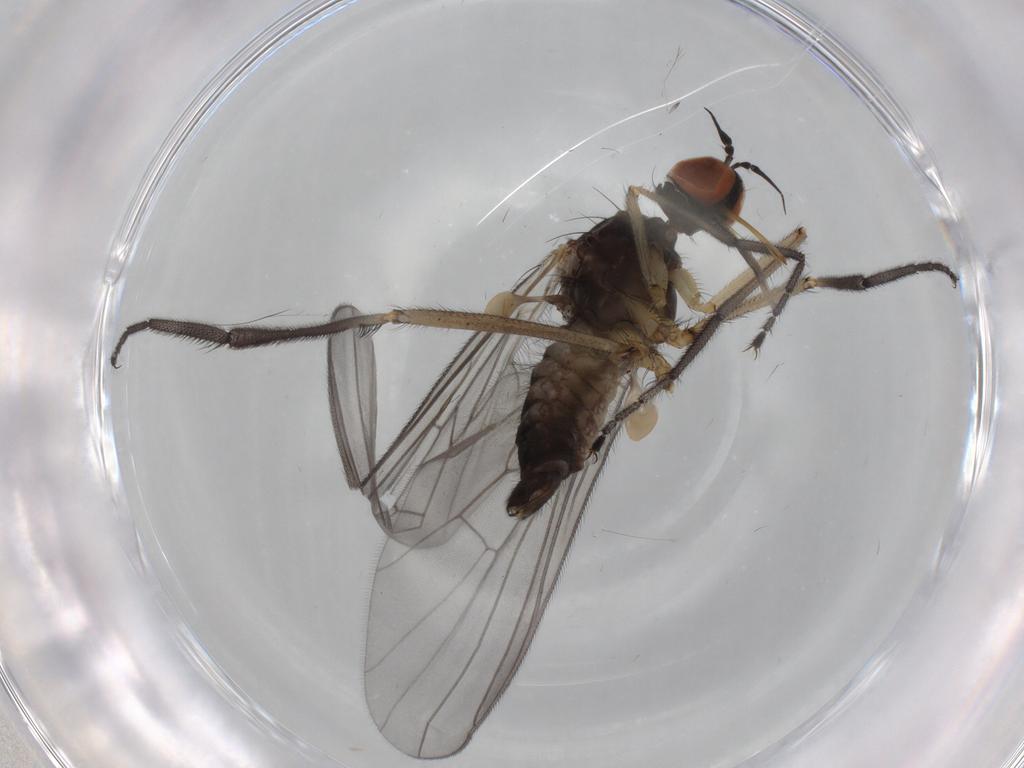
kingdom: Animalia
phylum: Arthropoda
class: Insecta
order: Diptera
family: Empididae
